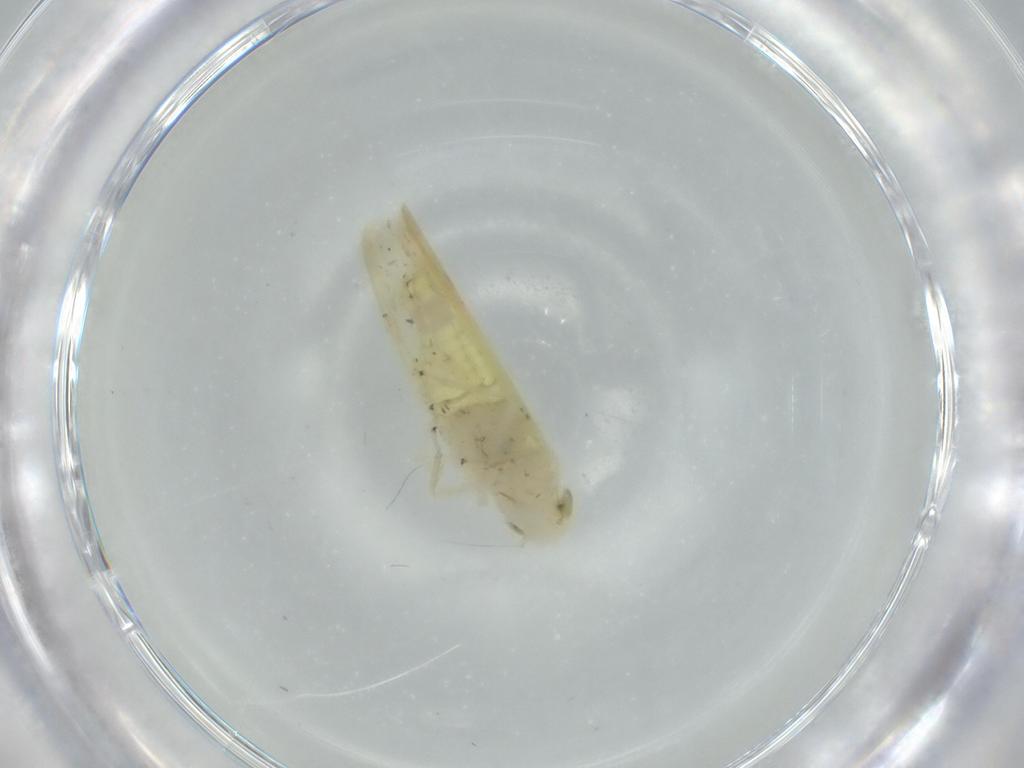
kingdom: Animalia
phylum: Arthropoda
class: Insecta
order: Hemiptera
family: Cicadellidae
